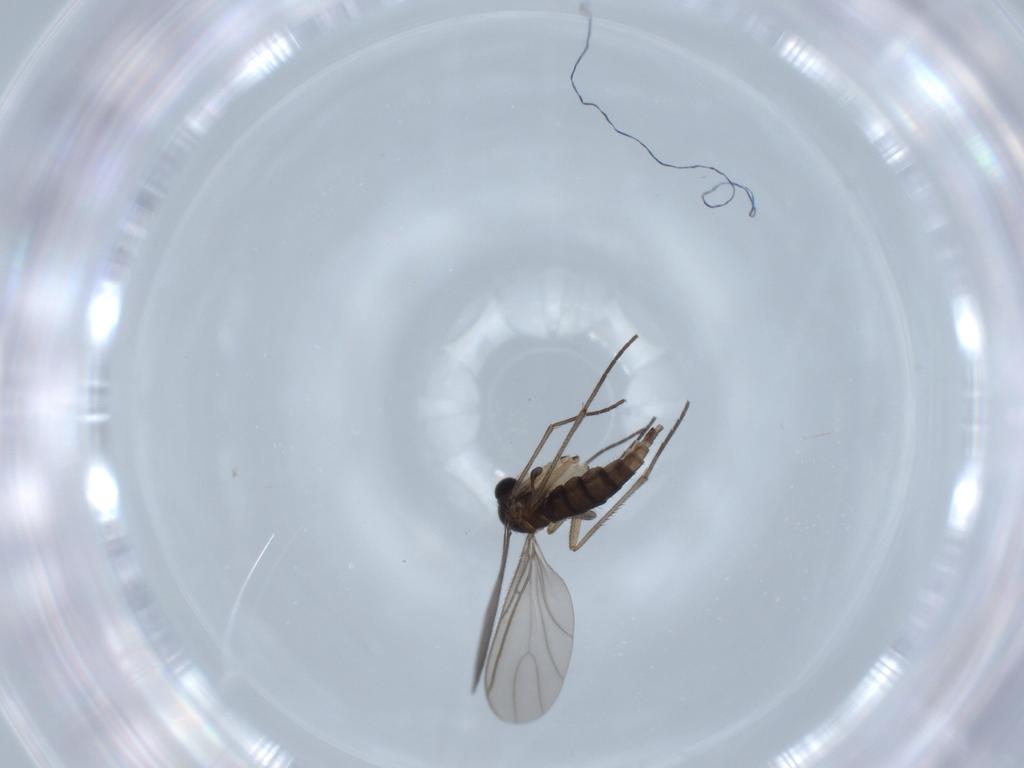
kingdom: Animalia
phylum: Arthropoda
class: Insecta
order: Diptera
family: Sciaridae
